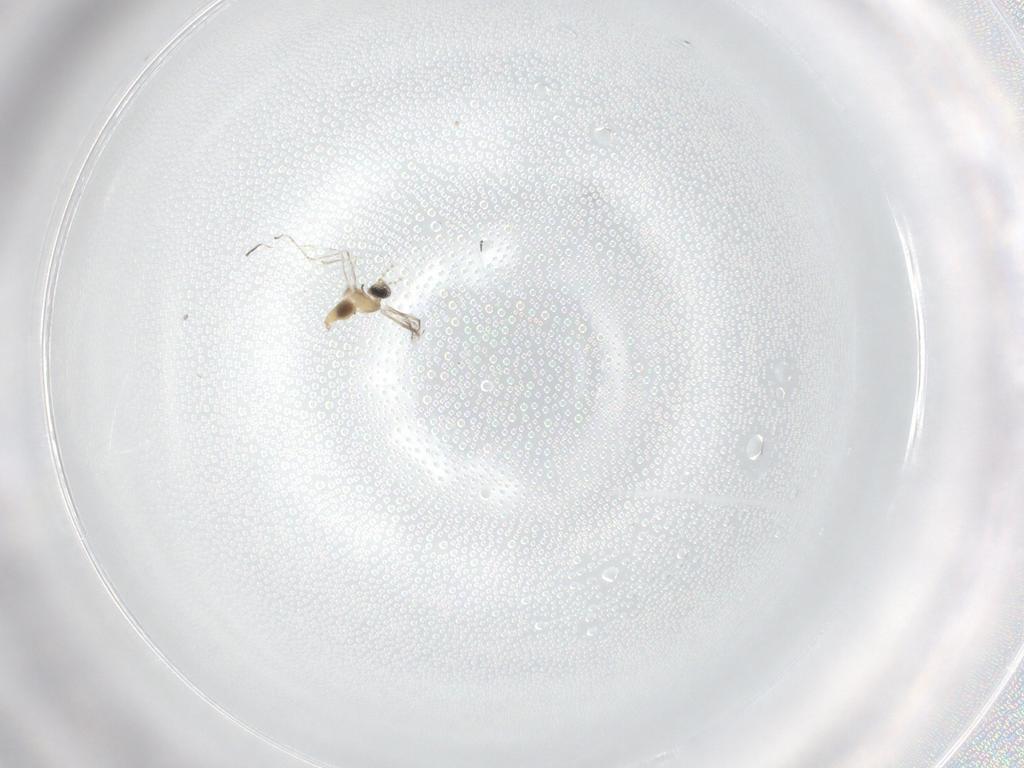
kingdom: Animalia
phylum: Arthropoda
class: Insecta
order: Diptera
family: Cecidomyiidae
